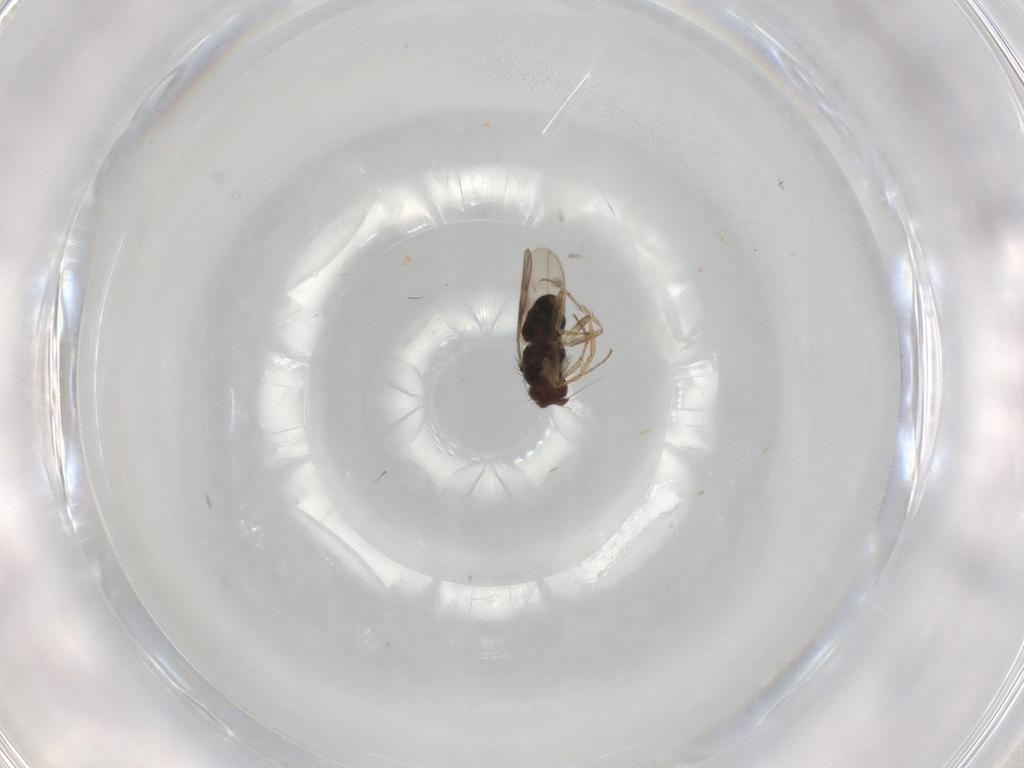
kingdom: Animalia
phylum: Arthropoda
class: Insecta
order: Diptera
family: Sphaeroceridae
